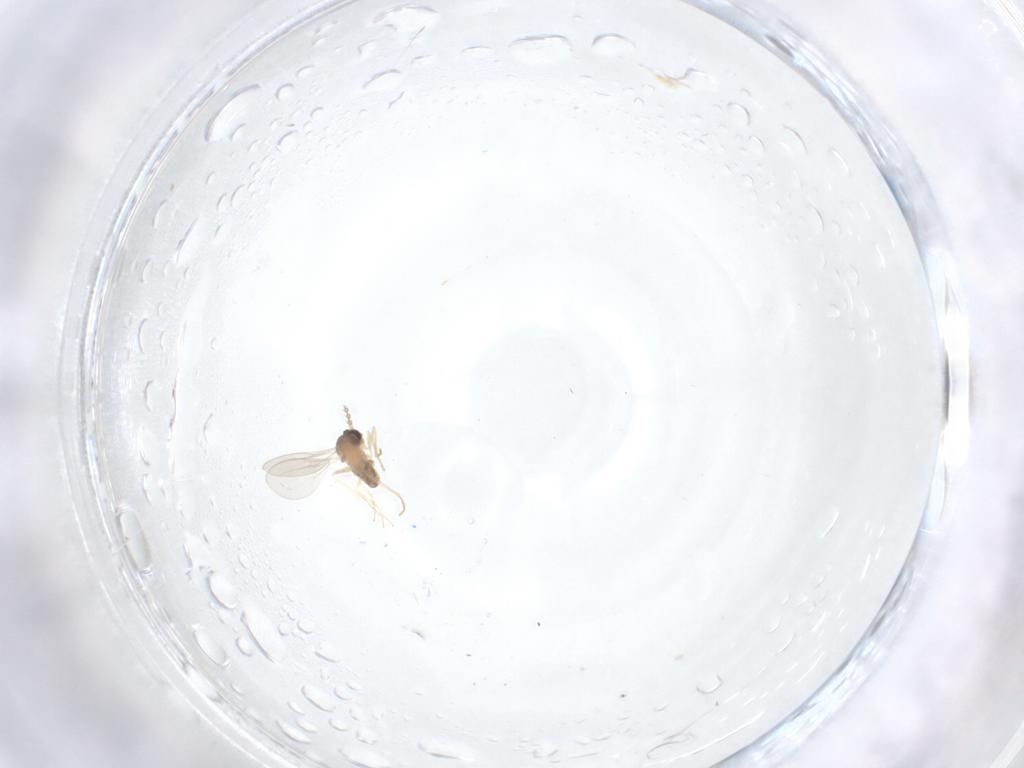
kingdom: Animalia
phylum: Arthropoda
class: Insecta
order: Diptera
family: Cecidomyiidae
